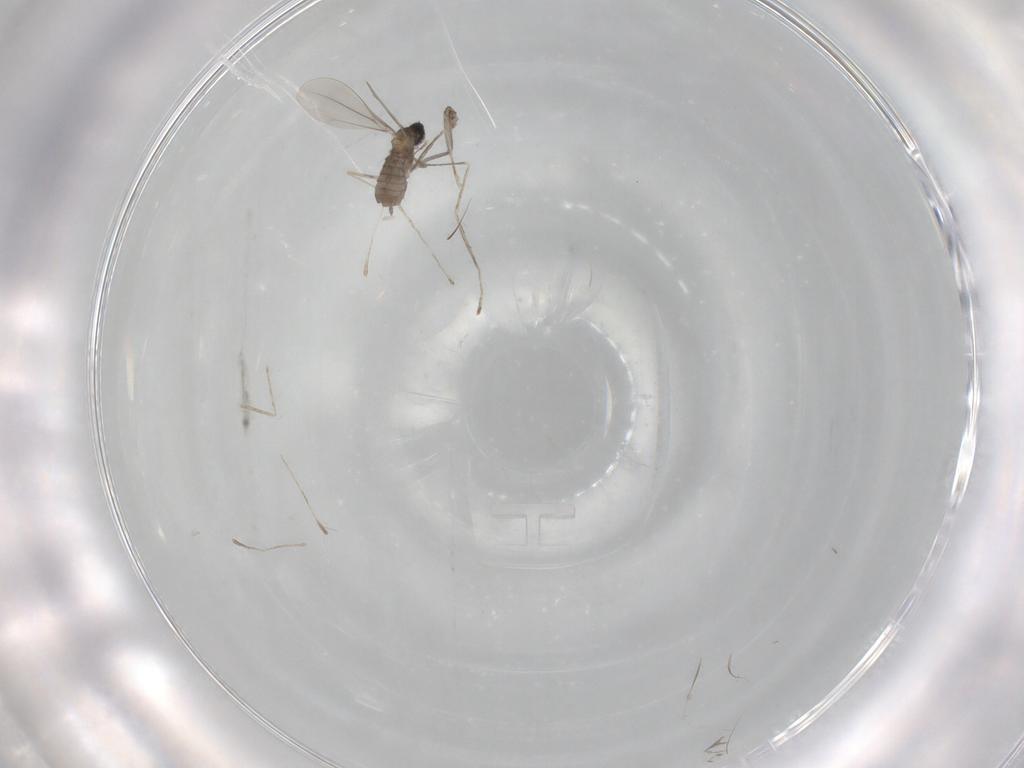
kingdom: Animalia
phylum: Arthropoda
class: Insecta
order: Diptera
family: Cecidomyiidae
